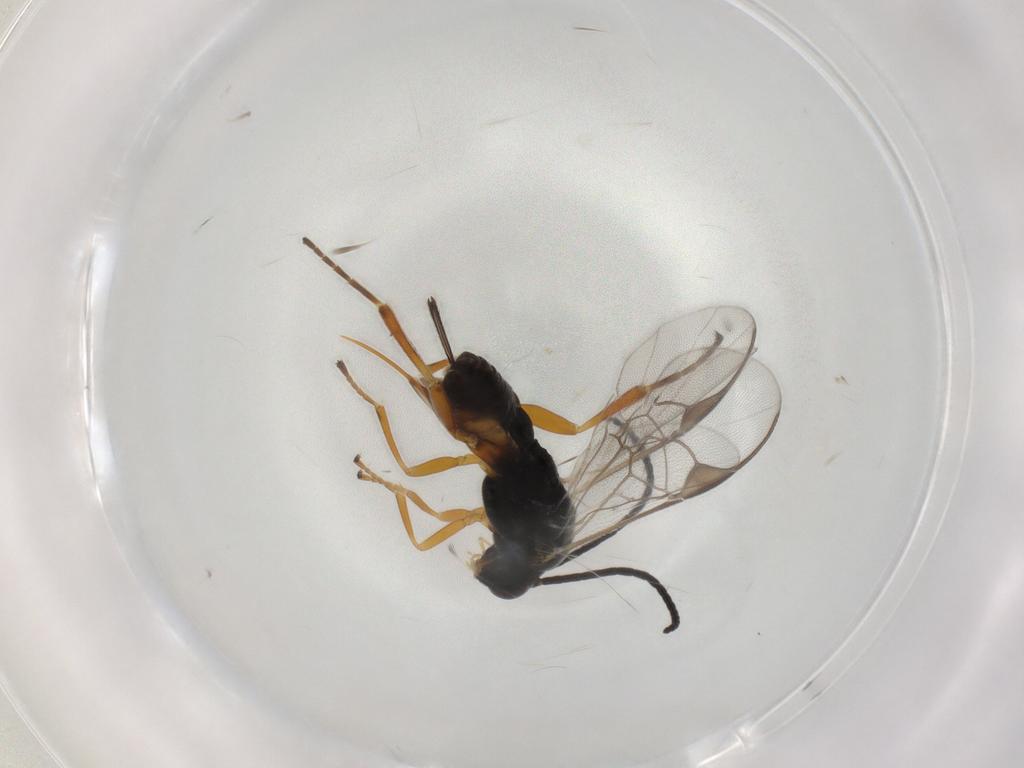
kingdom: Animalia
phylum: Arthropoda
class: Insecta
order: Hymenoptera
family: Braconidae
